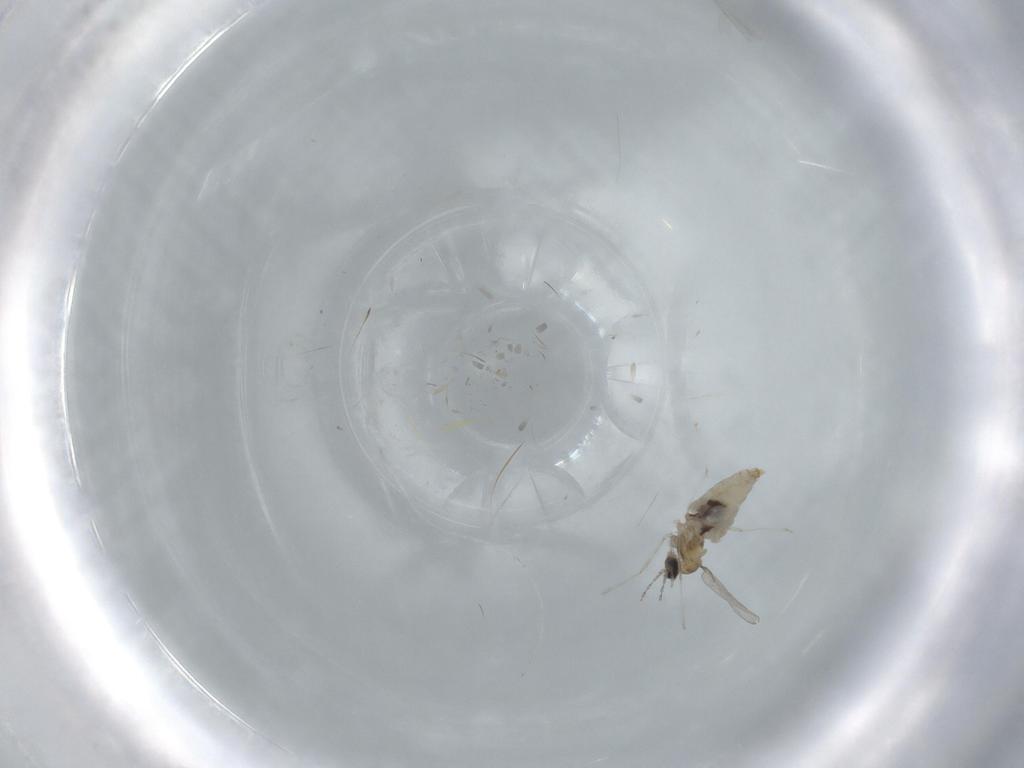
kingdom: Animalia
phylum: Arthropoda
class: Insecta
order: Diptera
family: Cecidomyiidae
